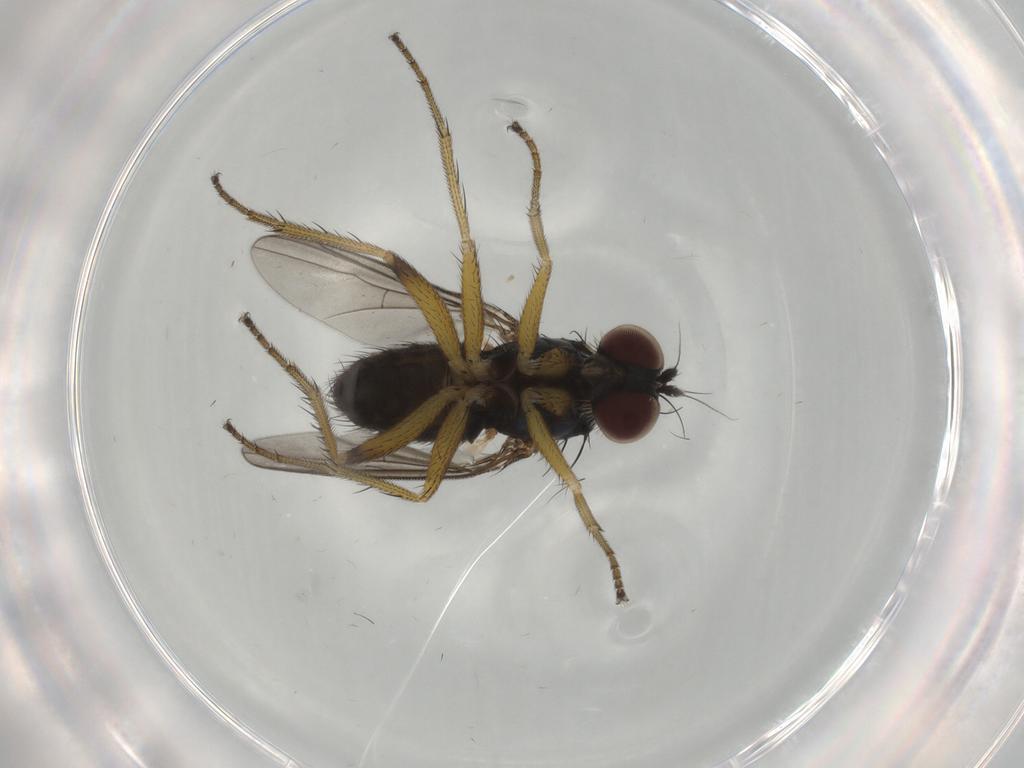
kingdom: Animalia
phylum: Arthropoda
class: Insecta
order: Diptera
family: Dolichopodidae
